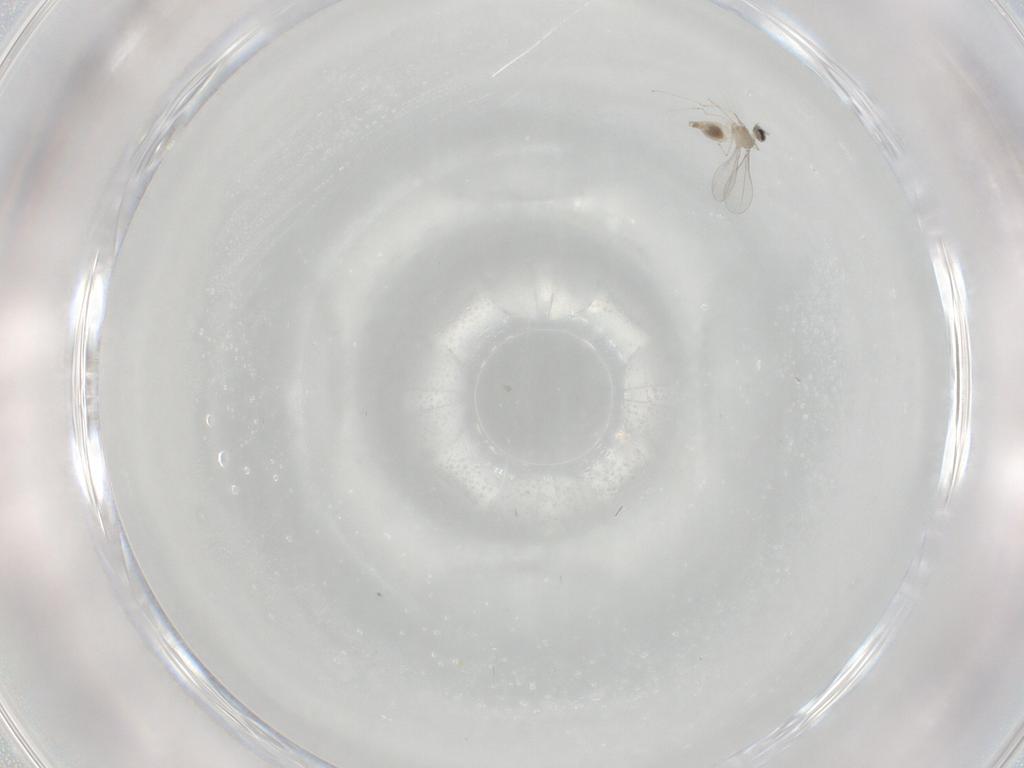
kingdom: Animalia
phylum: Arthropoda
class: Insecta
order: Diptera
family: Cecidomyiidae
